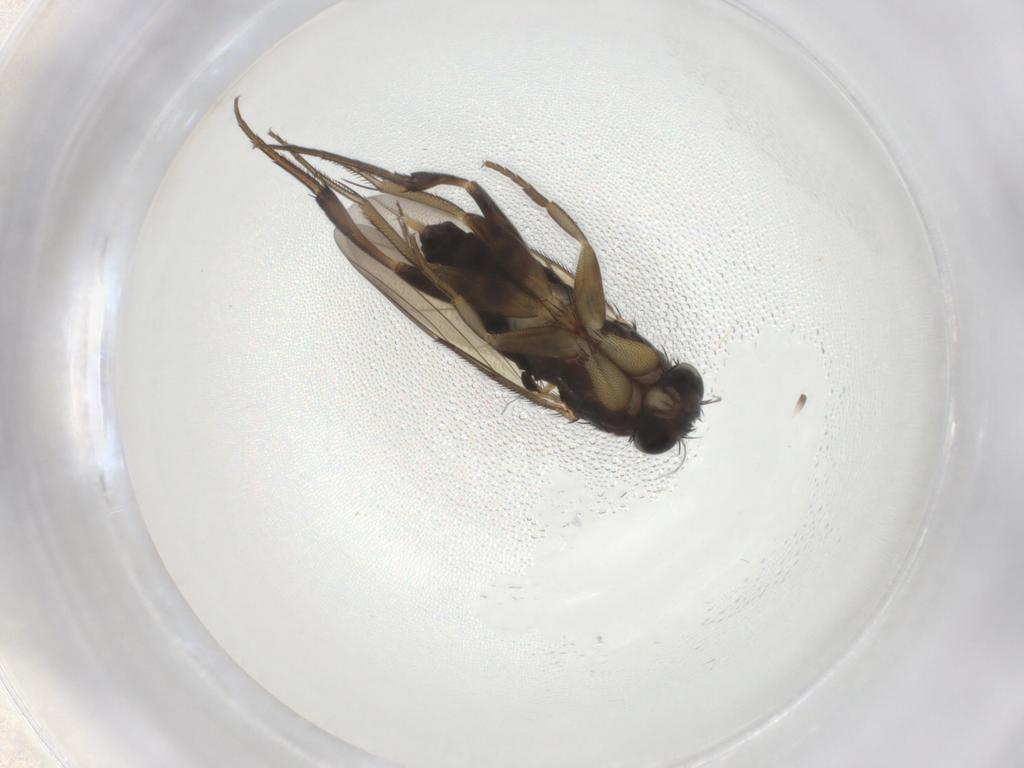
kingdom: Animalia
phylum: Arthropoda
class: Insecta
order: Diptera
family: Phoridae
